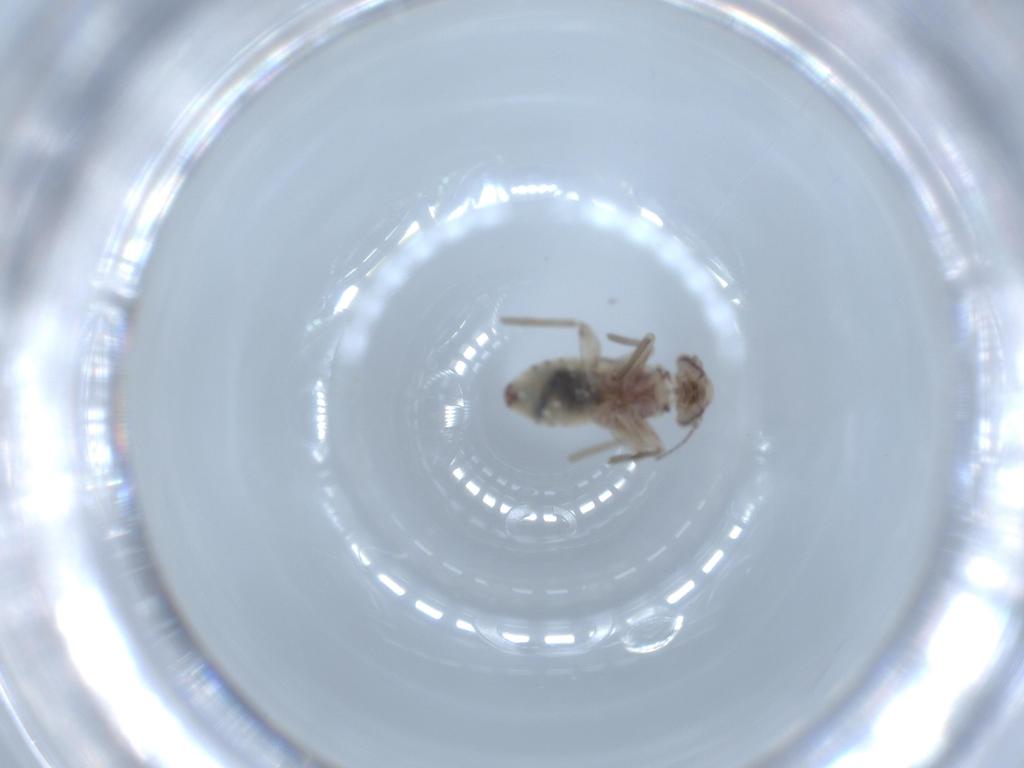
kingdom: Animalia
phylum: Arthropoda
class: Insecta
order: Psocodea
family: Lepidopsocidae
